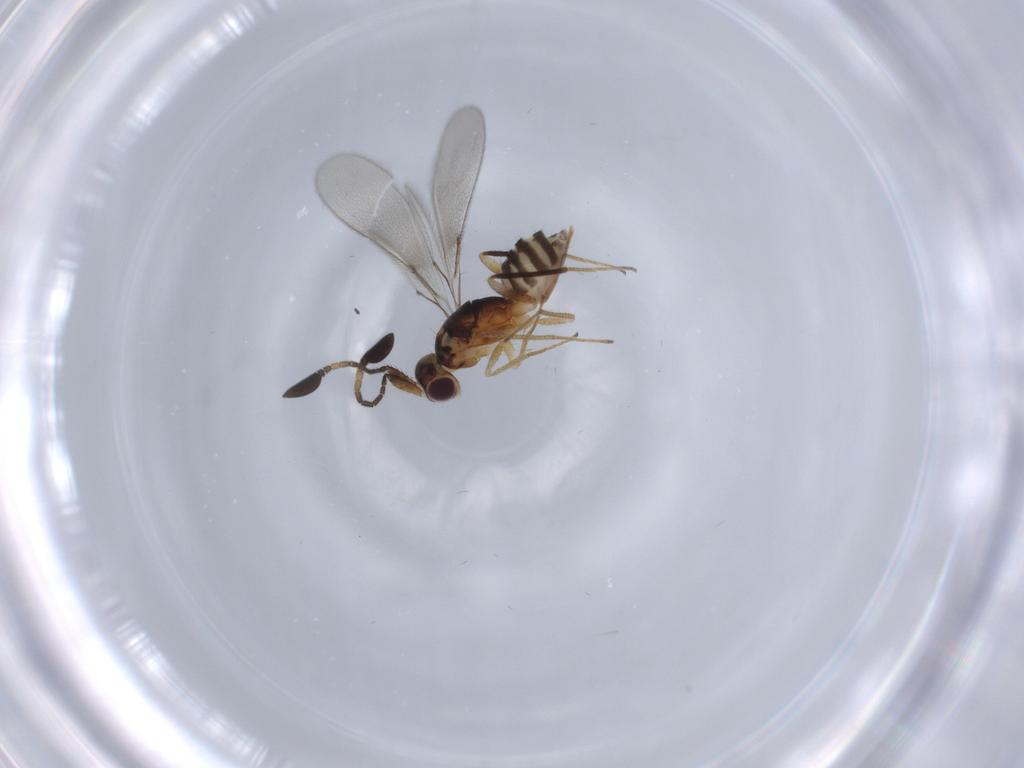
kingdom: Animalia
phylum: Arthropoda
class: Insecta
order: Hymenoptera
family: Mymaridae
